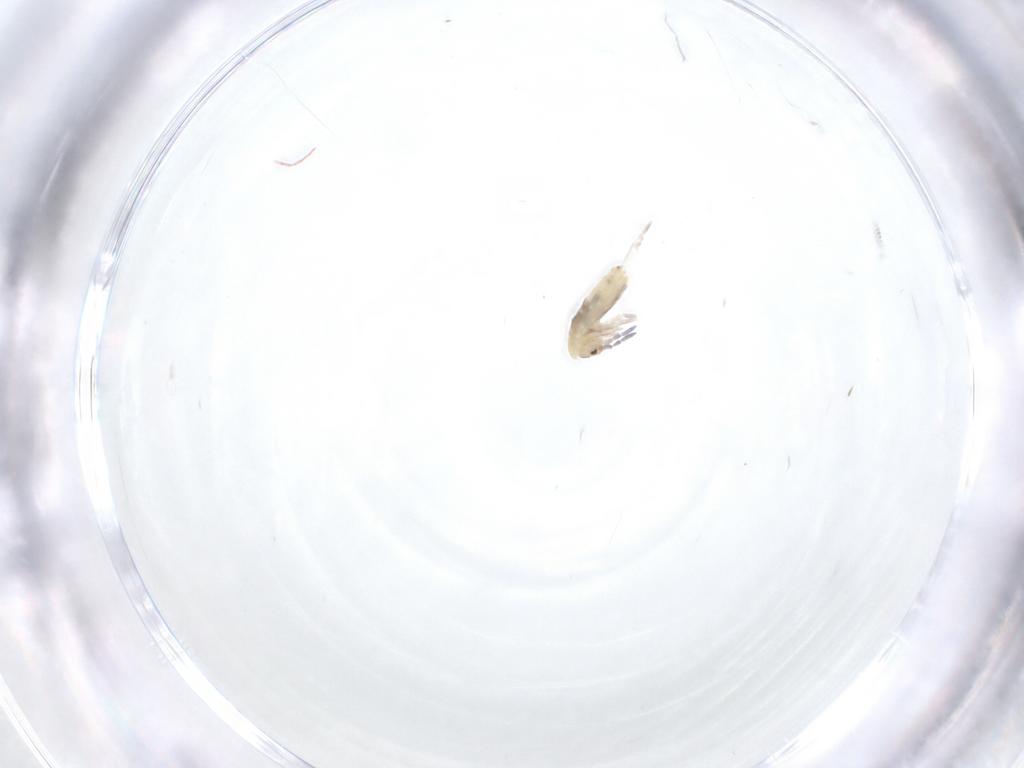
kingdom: Animalia
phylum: Arthropoda
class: Collembola
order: Entomobryomorpha
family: Entomobryidae
